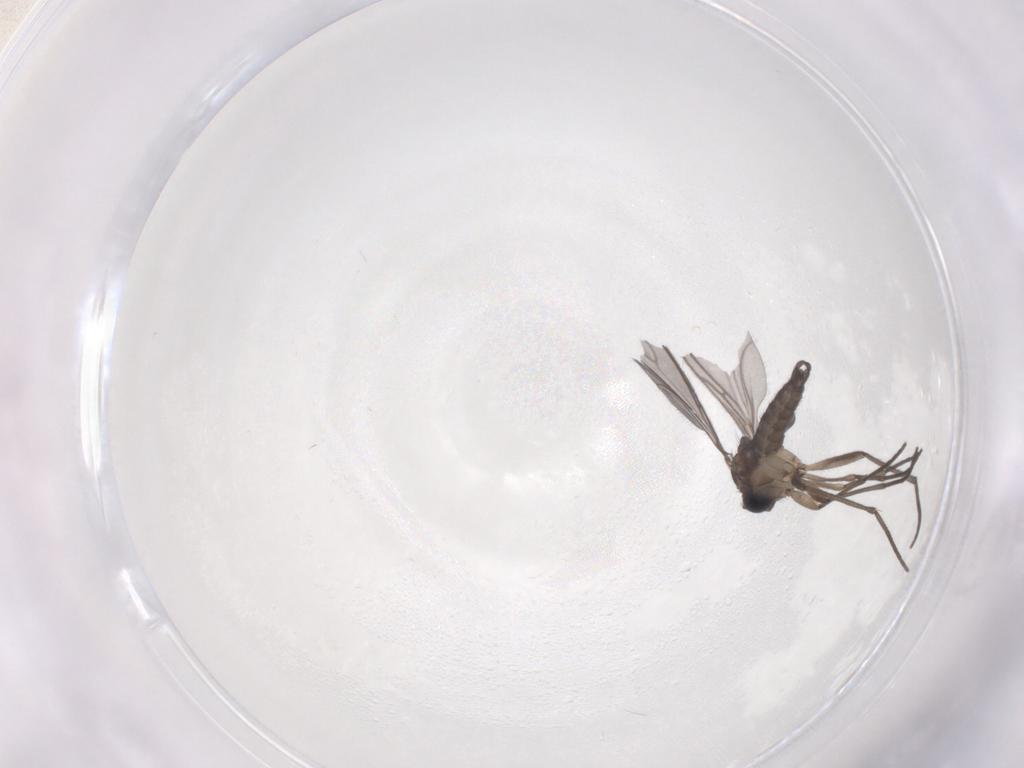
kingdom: Animalia
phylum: Arthropoda
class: Insecta
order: Diptera
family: Sciaridae
